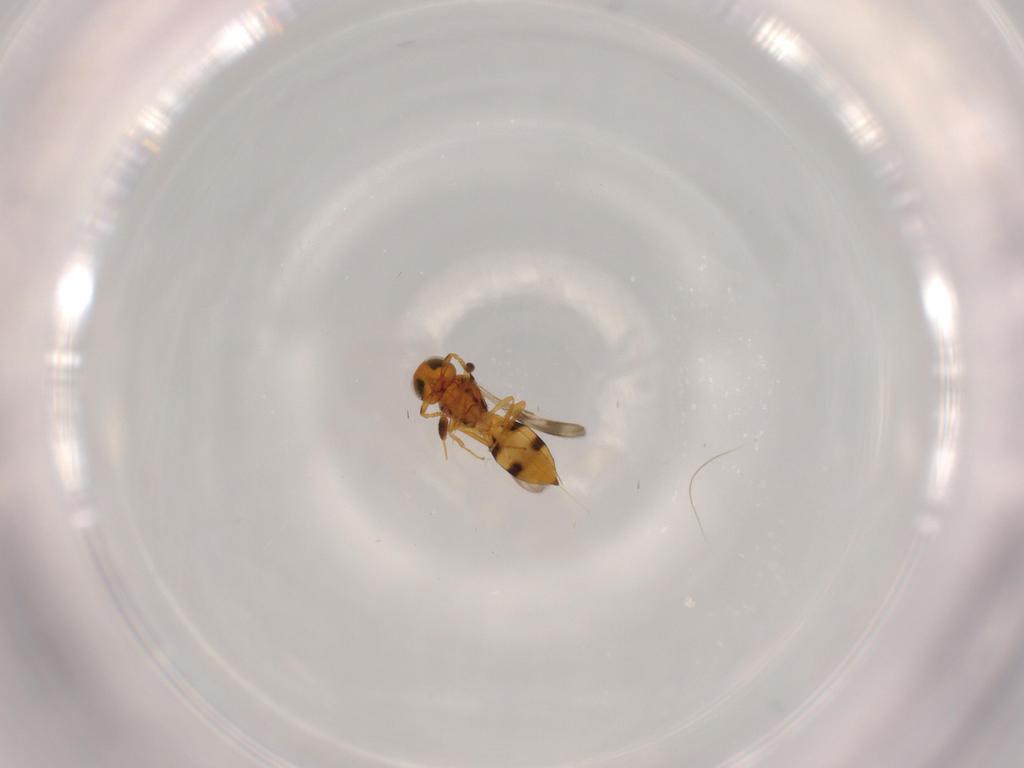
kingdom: Animalia
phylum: Arthropoda
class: Insecta
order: Hymenoptera
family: Scelionidae
